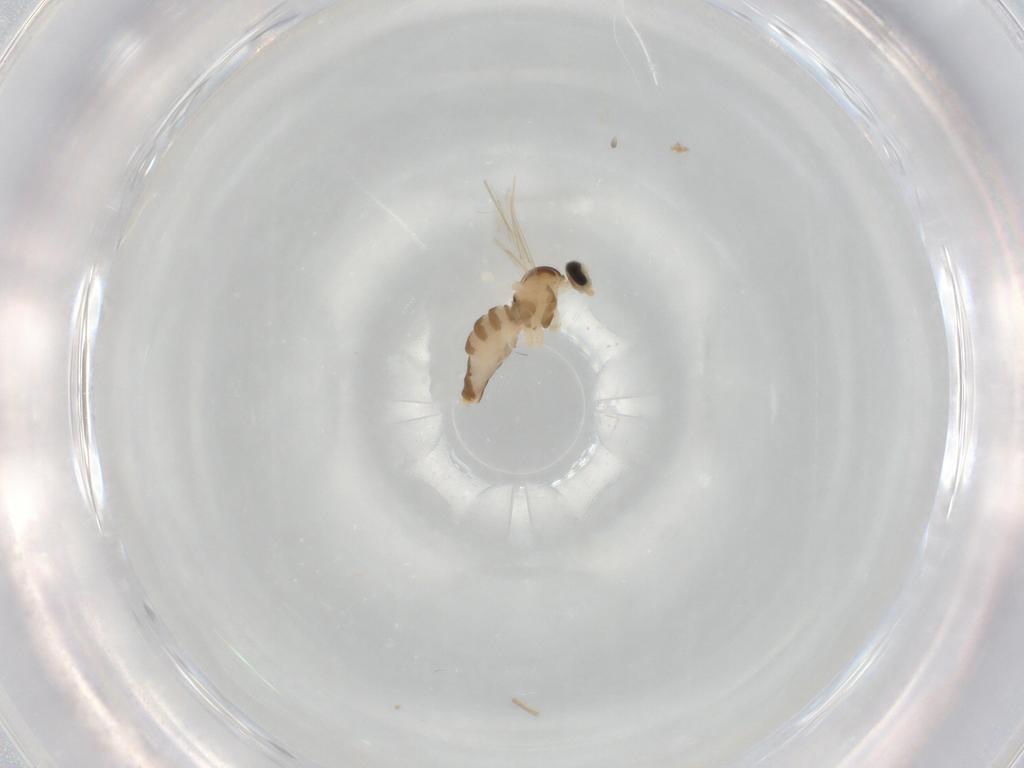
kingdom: Animalia
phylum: Arthropoda
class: Insecta
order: Diptera
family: Cecidomyiidae
